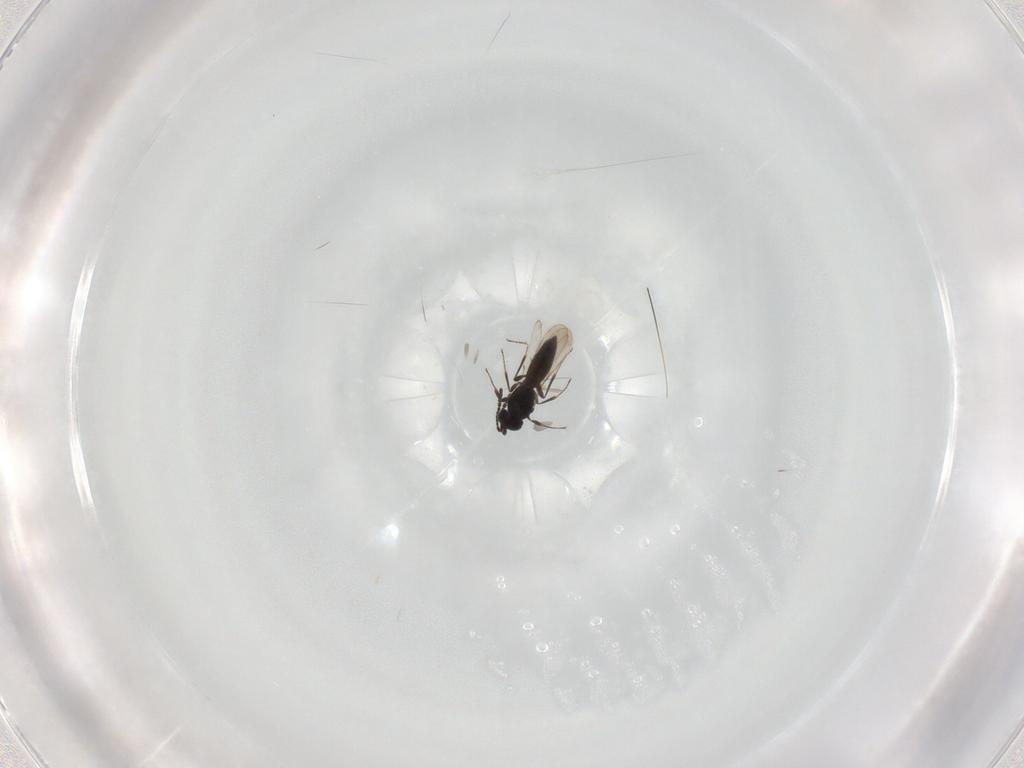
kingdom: Animalia
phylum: Arthropoda
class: Insecta
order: Hymenoptera
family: Scelionidae
